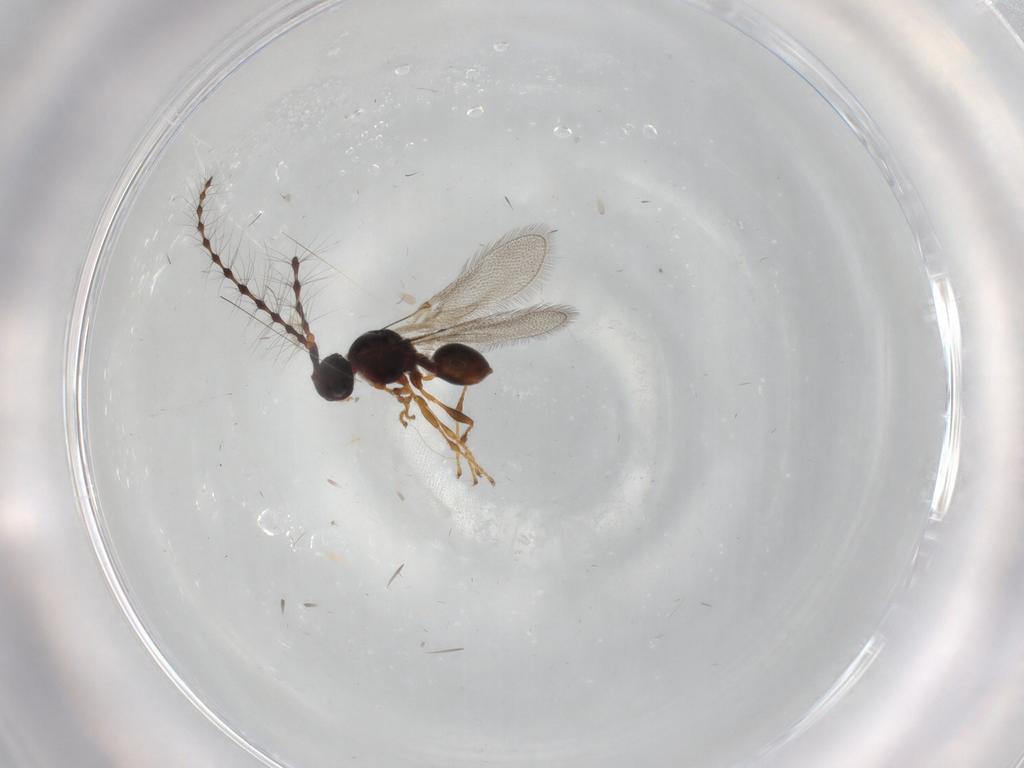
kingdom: Animalia
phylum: Arthropoda
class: Insecta
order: Hymenoptera
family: Diapriidae
